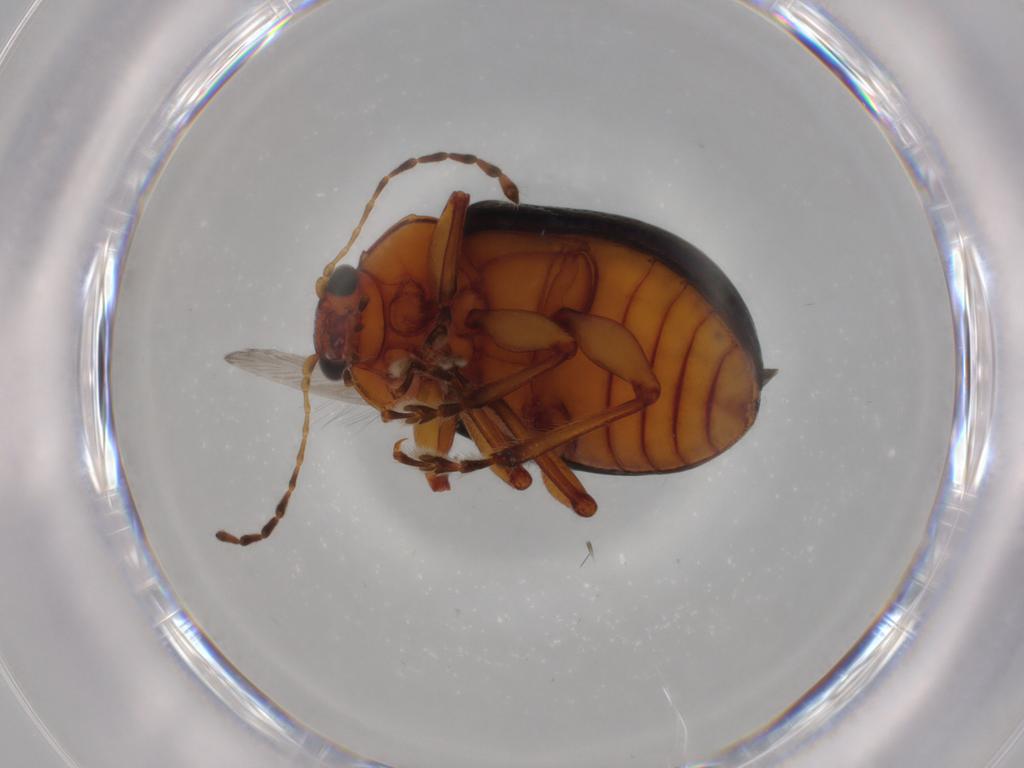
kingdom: Animalia
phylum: Arthropoda
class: Insecta
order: Coleoptera
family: Chrysomelidae
